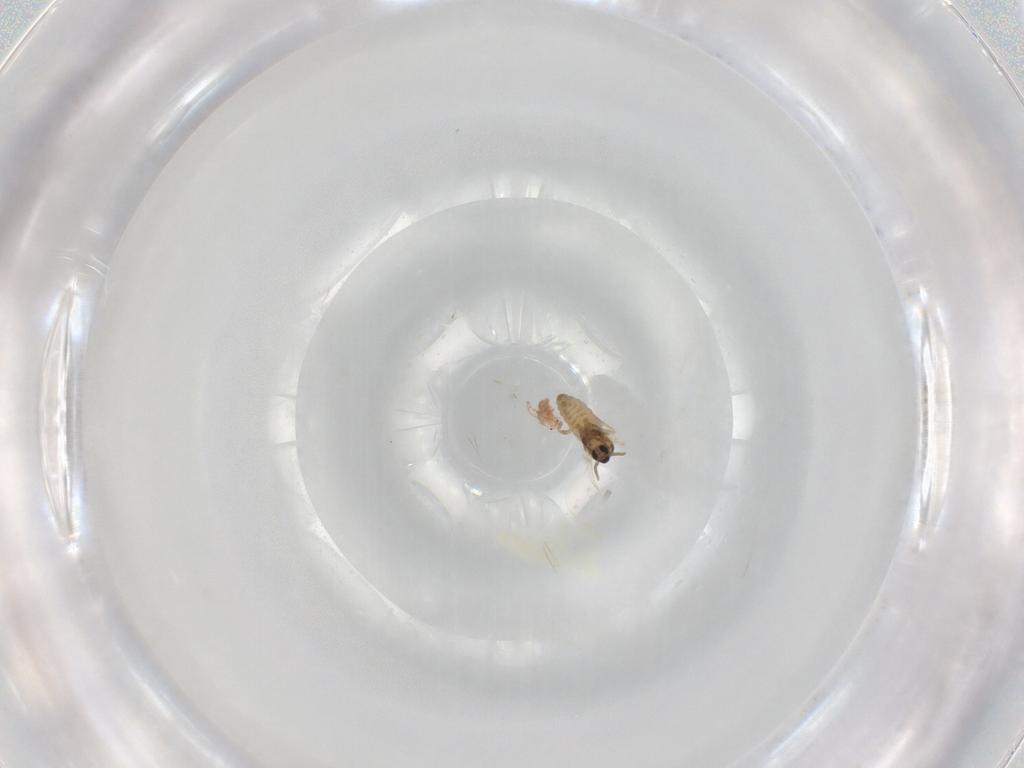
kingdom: Animalia
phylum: Arthropoda
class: Insecta
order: Diptera
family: Cecidomyiidae
